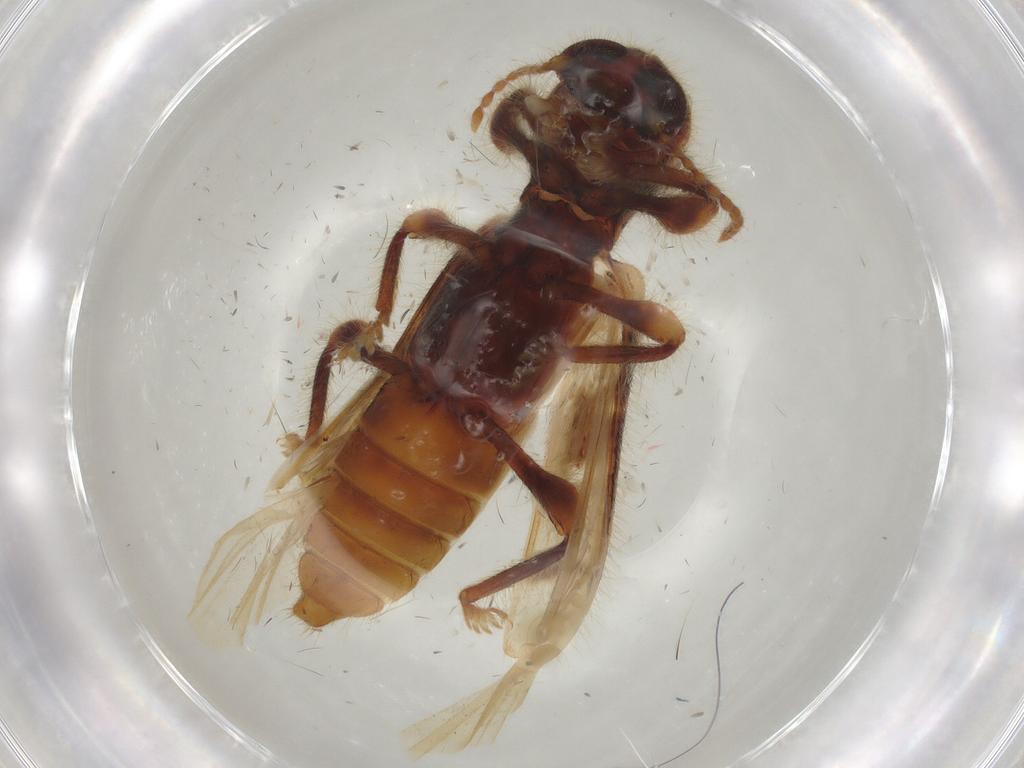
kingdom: Animalia
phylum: Arthropoda
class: Insecta
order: Coleoptera
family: Cleridae
